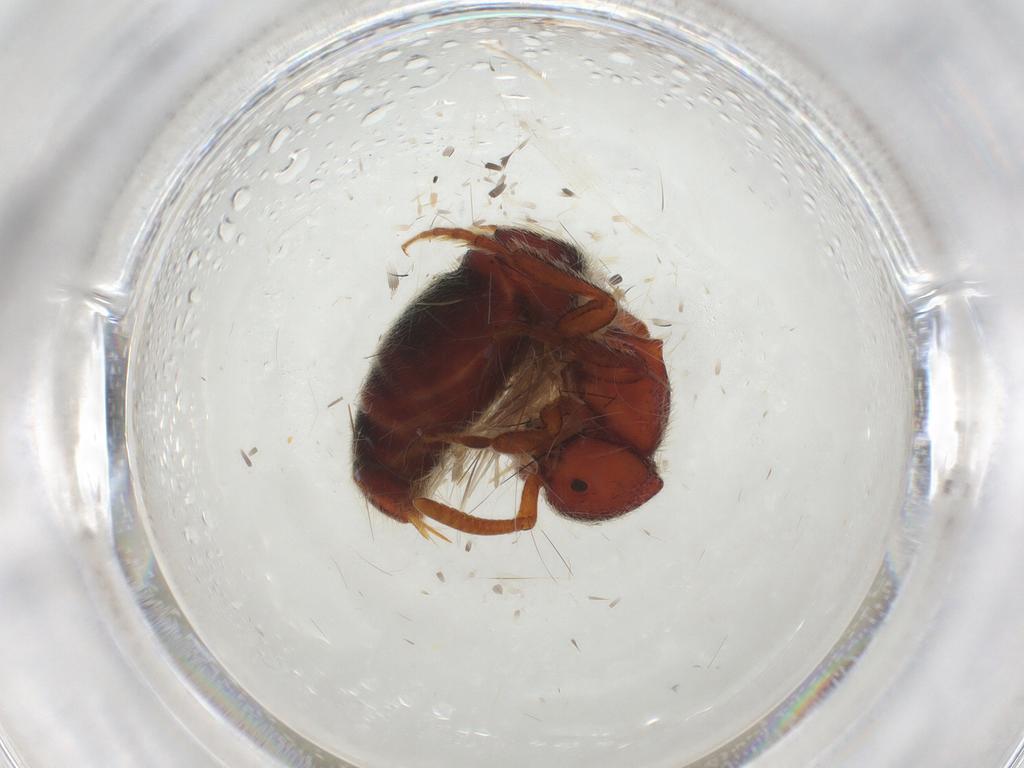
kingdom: Animalia
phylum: Arthropoda
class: Insecta
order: Coleoptera
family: Anthribidae
